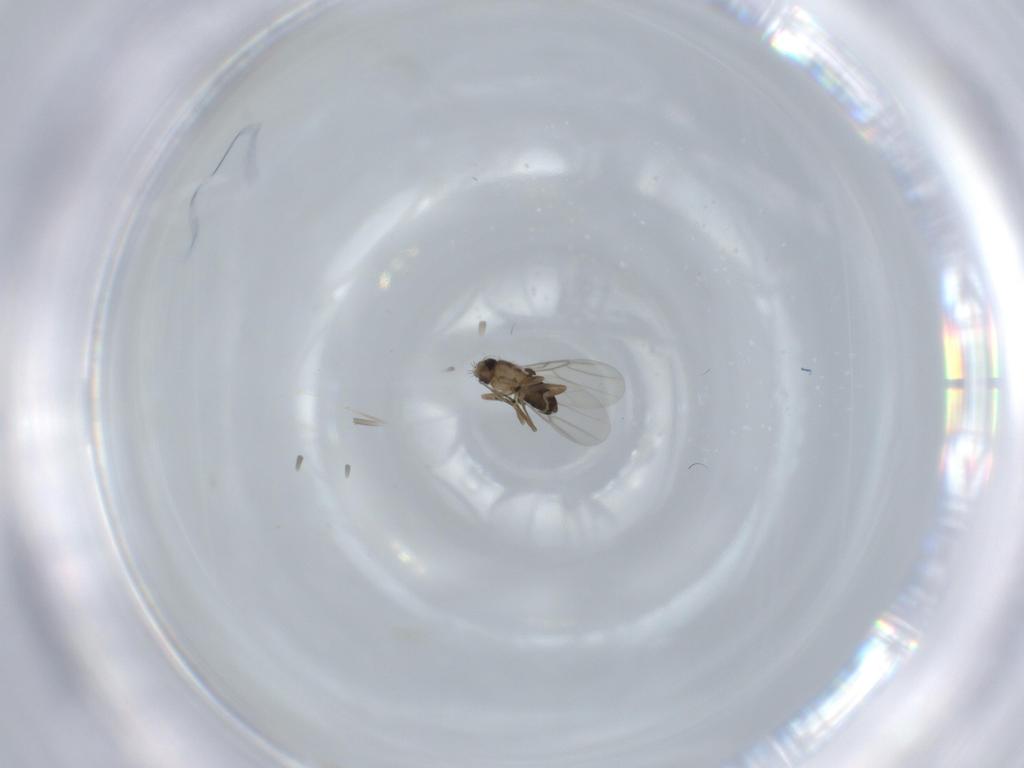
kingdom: Animalia
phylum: Arthropoda
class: Insecta
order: Diptera
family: Phoridae
